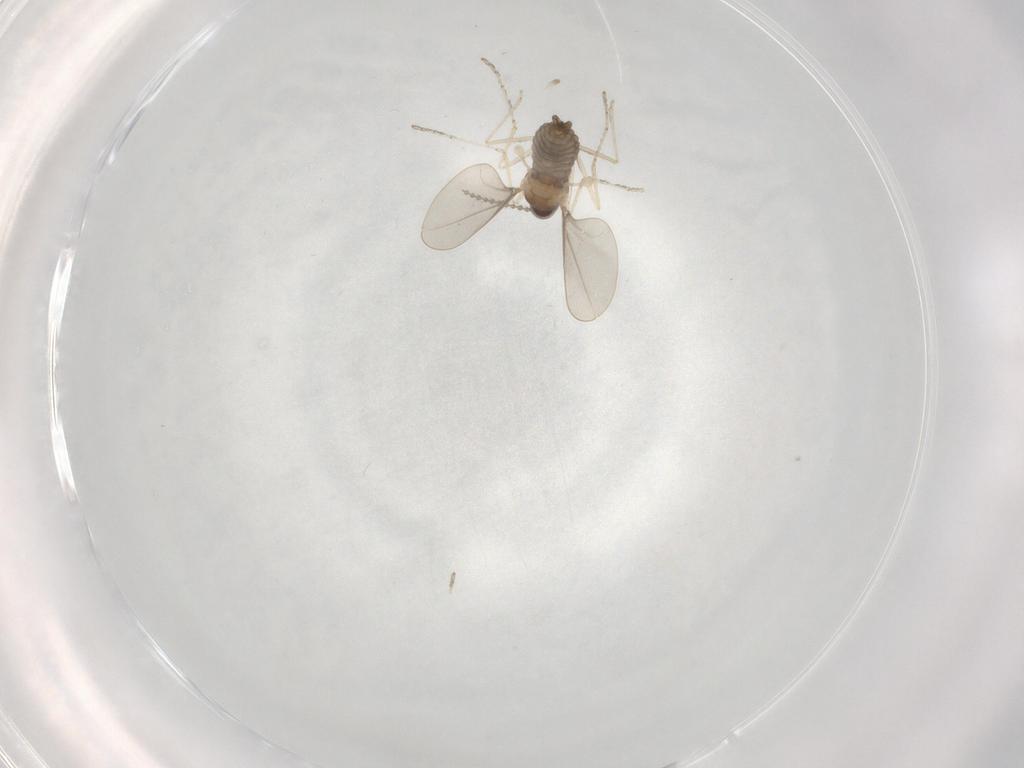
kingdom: Animalia
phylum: Arthropoda
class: Insecta
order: Diptera
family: Cecidomyiidae
